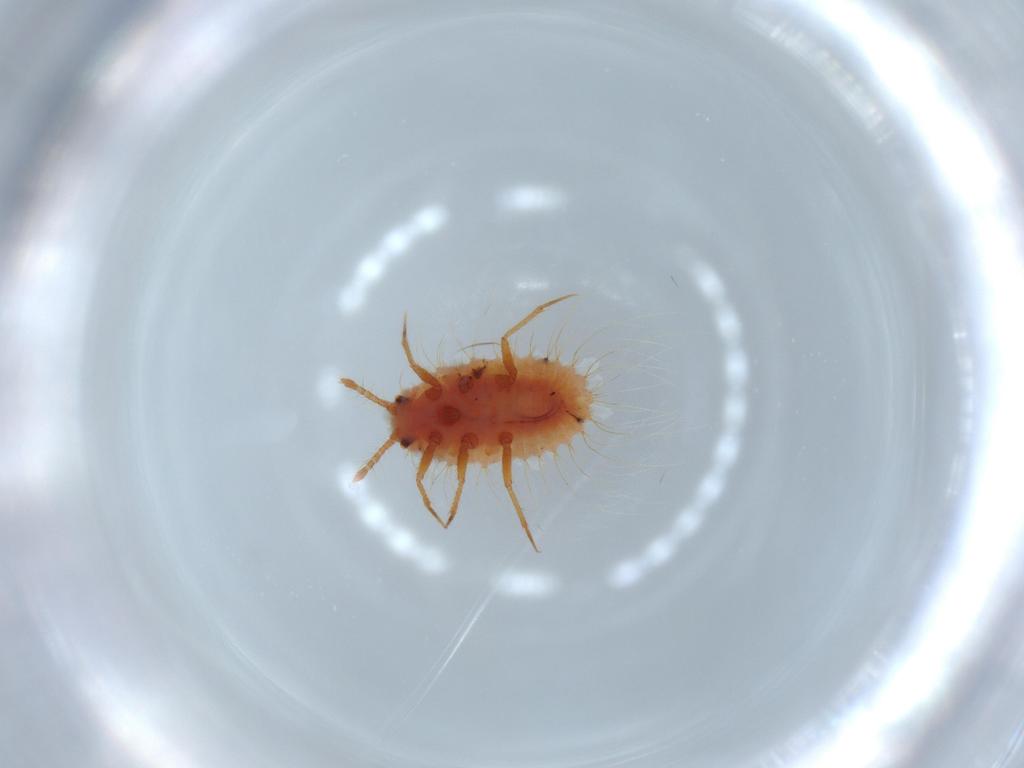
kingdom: Animalia
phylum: Arthropoda
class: Insecta
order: Hemiptera
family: Coccoidea_incertae_sedis
